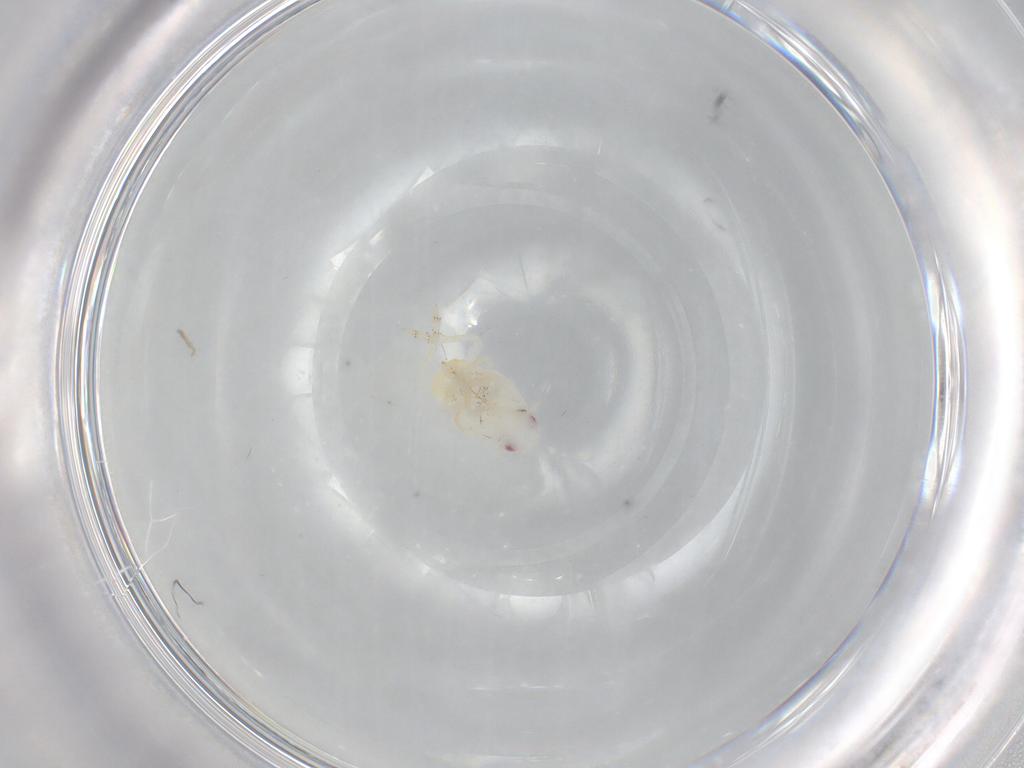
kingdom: Animalia
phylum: Arthropoda
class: Insecta
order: Hemiptera
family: Flatidae
